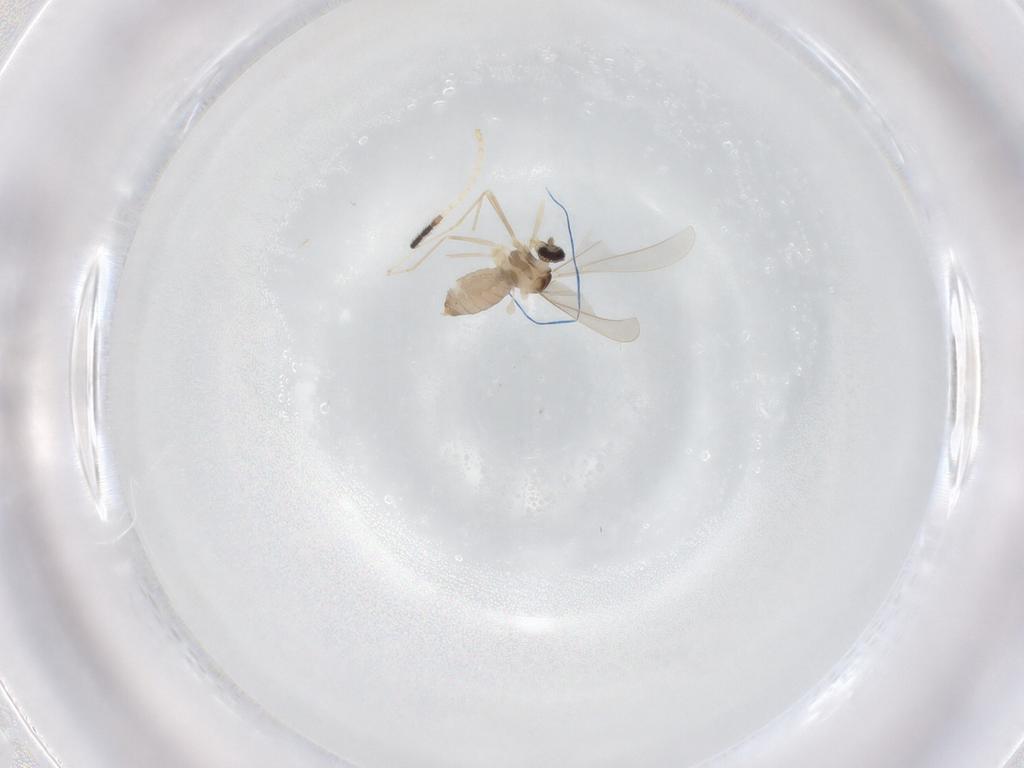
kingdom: Animalia
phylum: Arthropoda
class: Insecta
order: Diptera
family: Cecidomyiidae
